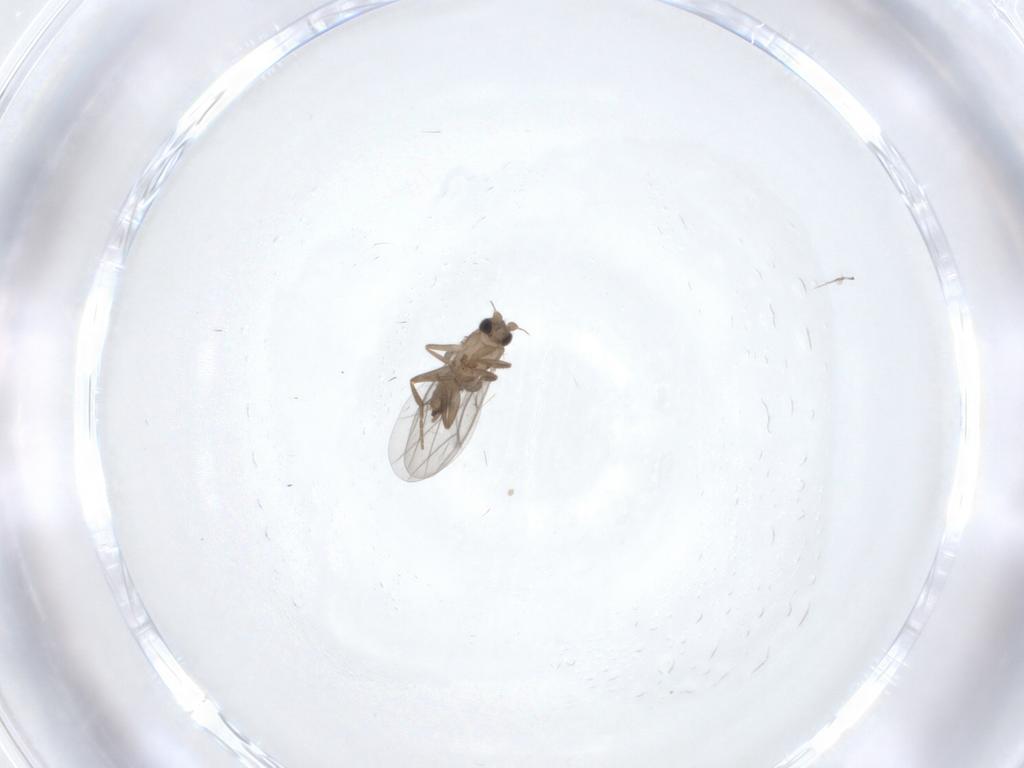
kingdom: Animalia
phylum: Arthropoda
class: Insecta
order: Diptera
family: Cecidomyiidae
